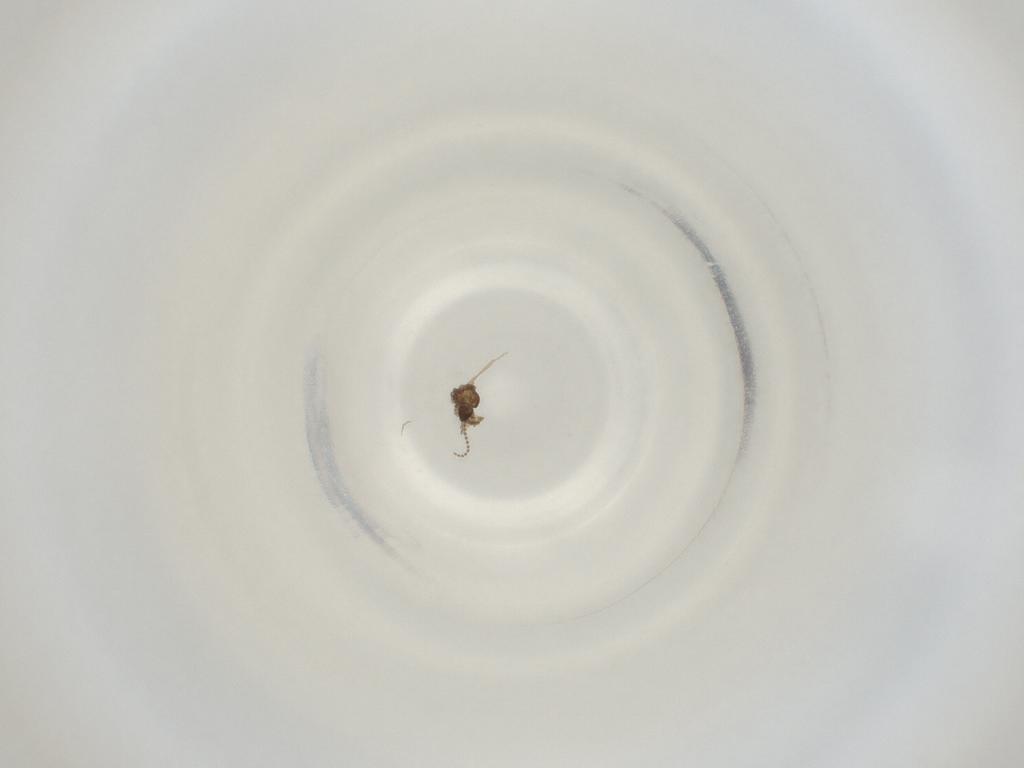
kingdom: Animalia
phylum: Arthropoda
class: Insecta
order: Diptera
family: Cecidomyiidae
